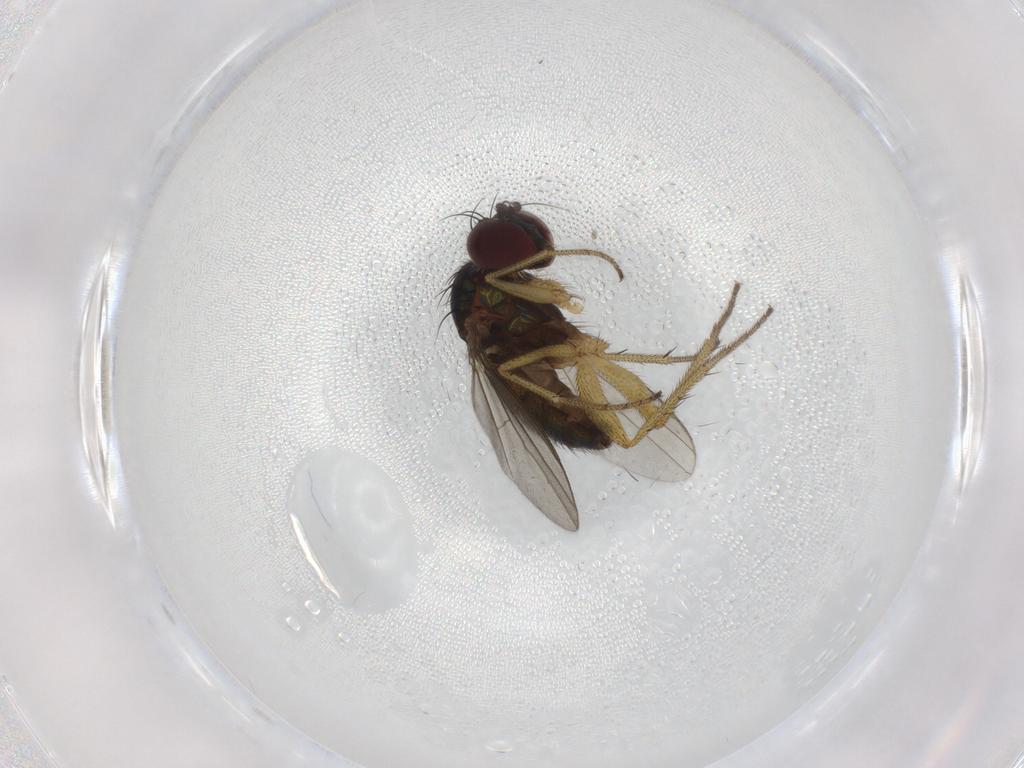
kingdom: Animalia
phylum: Arthropoda
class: Insecta
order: Diptera
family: Dolichopodidae
